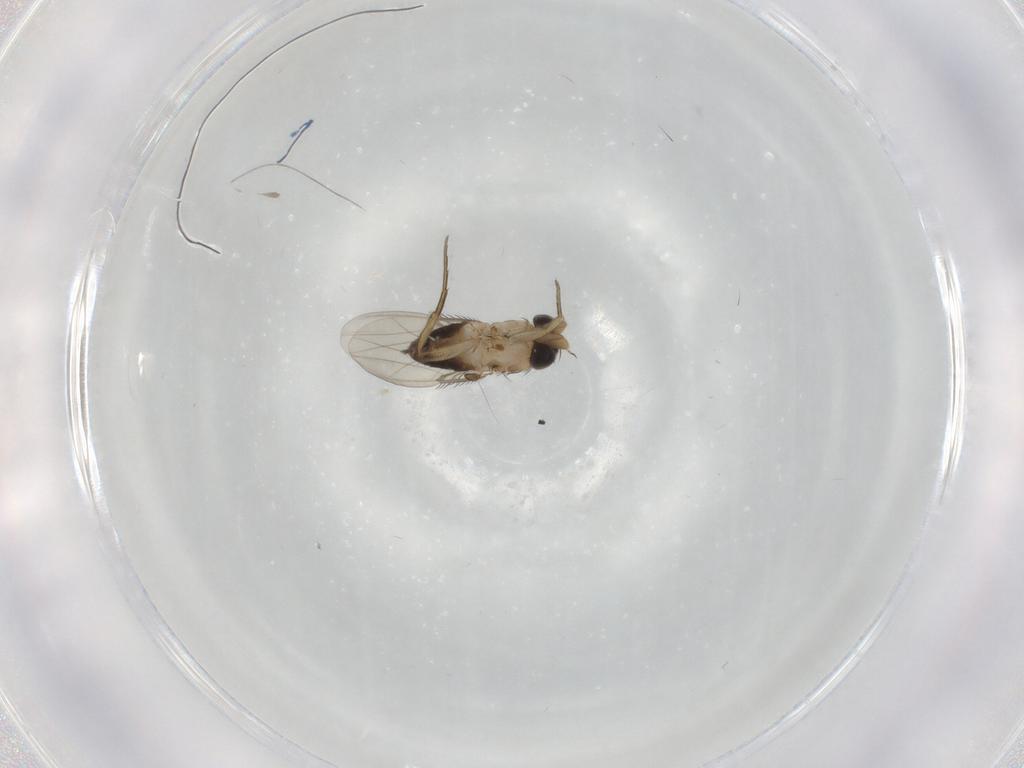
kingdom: Animalia
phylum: Arthropoda
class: Insecta
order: Diptera
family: Phoridae
